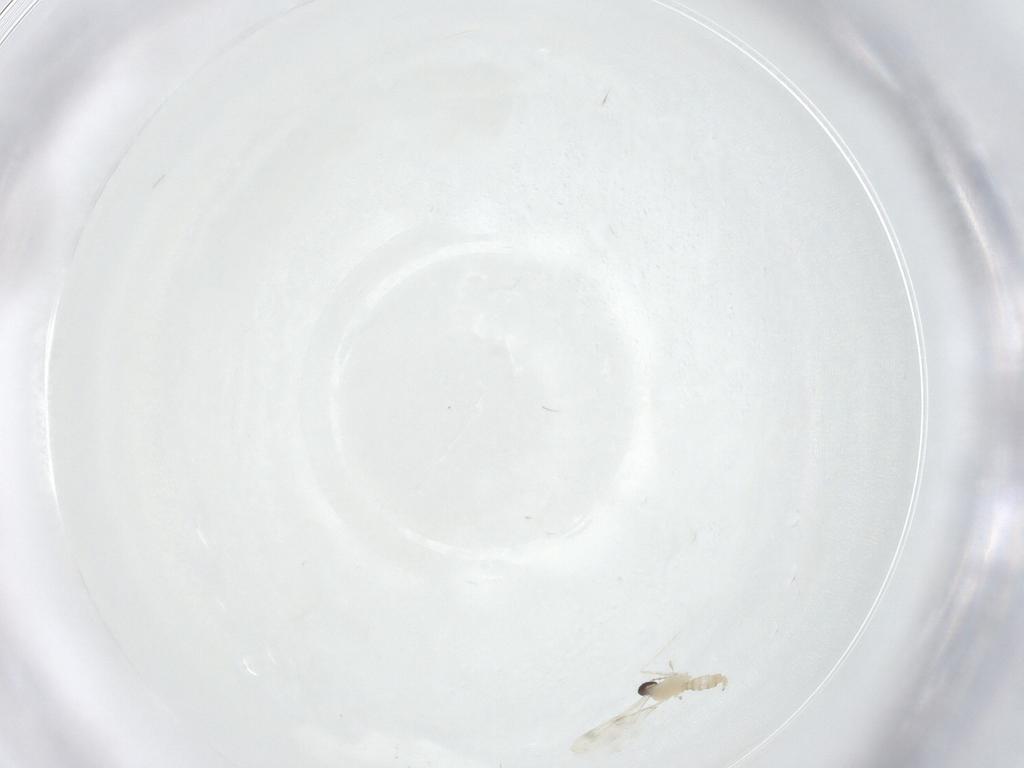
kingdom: Animalia
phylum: Arthropoda
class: Insecta
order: Diptera
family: Cecidomyiidae
